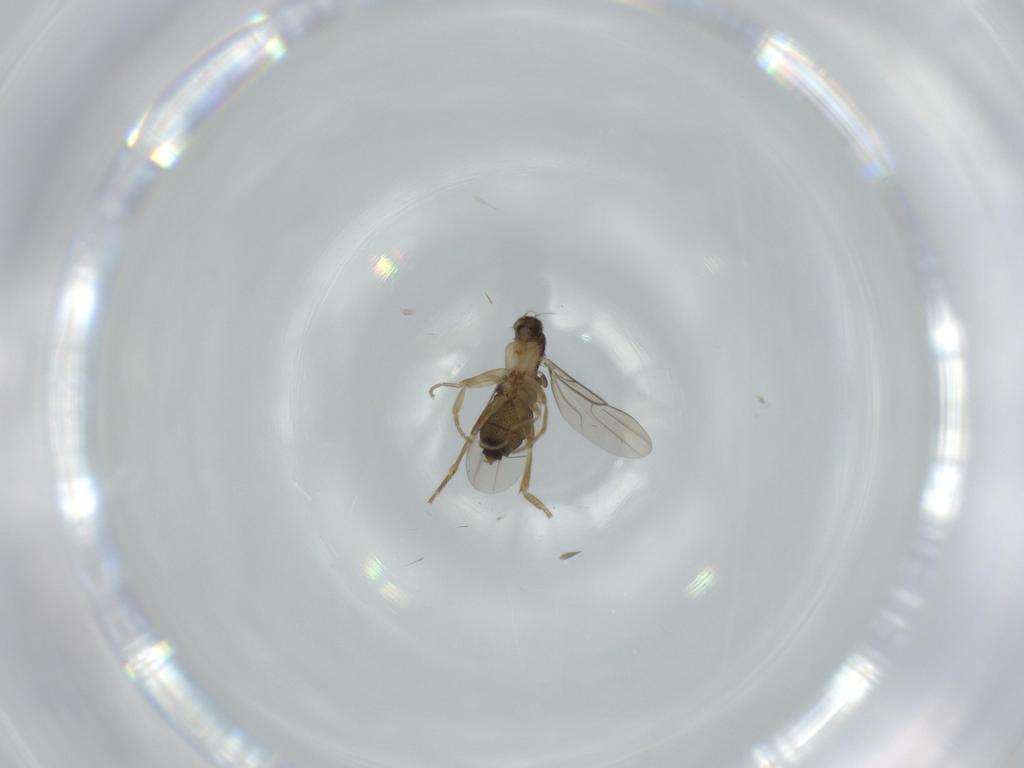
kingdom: Animalia
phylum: Arthropoda
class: Insecta
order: Diptera
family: Phoridae
